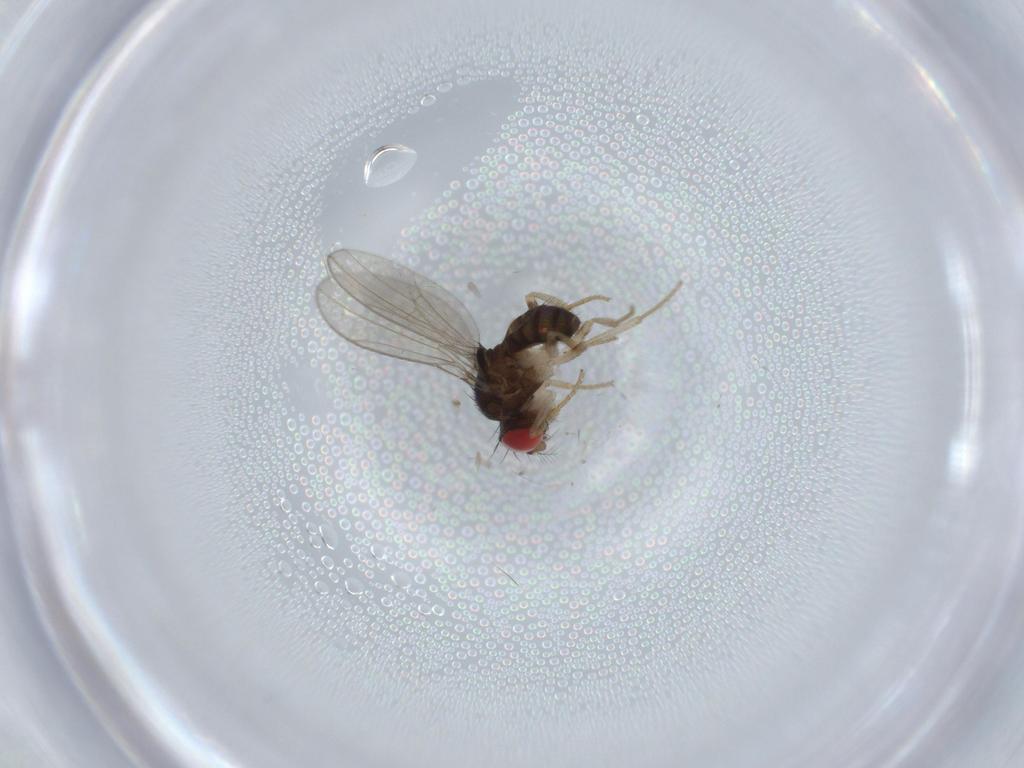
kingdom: Animalia
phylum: Arthropoda
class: Insecta
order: Diptera
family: Drosophilidae
